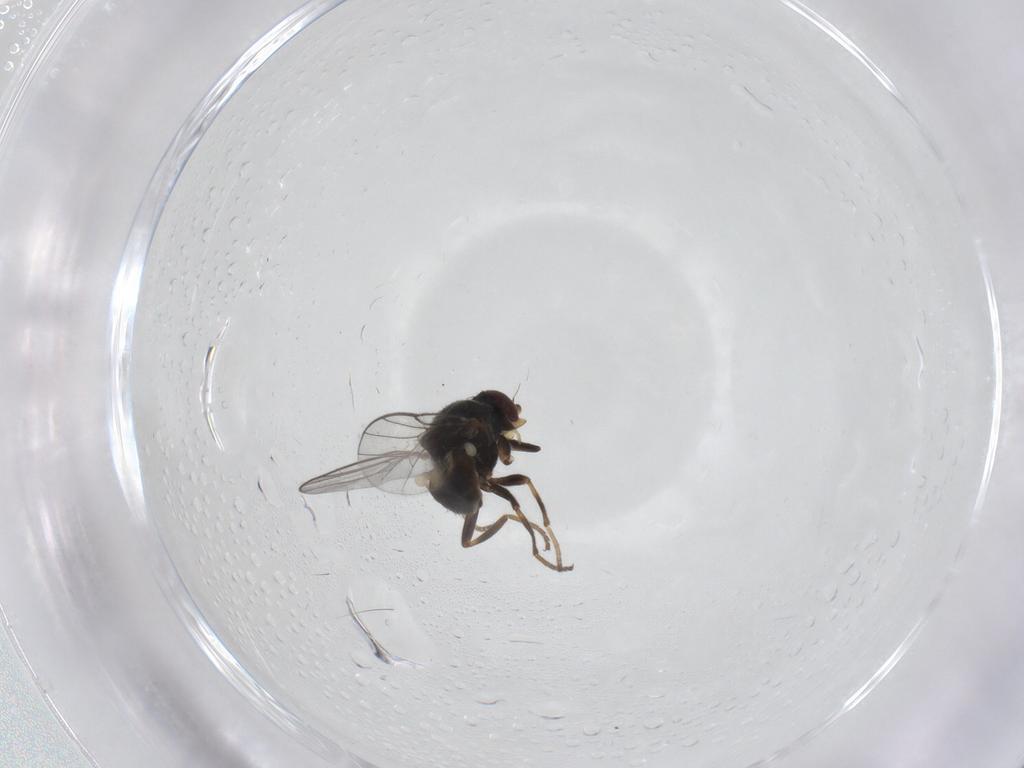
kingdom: Animalia
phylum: Arthropoda
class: Insecta
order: Diptera
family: Chloropidae
